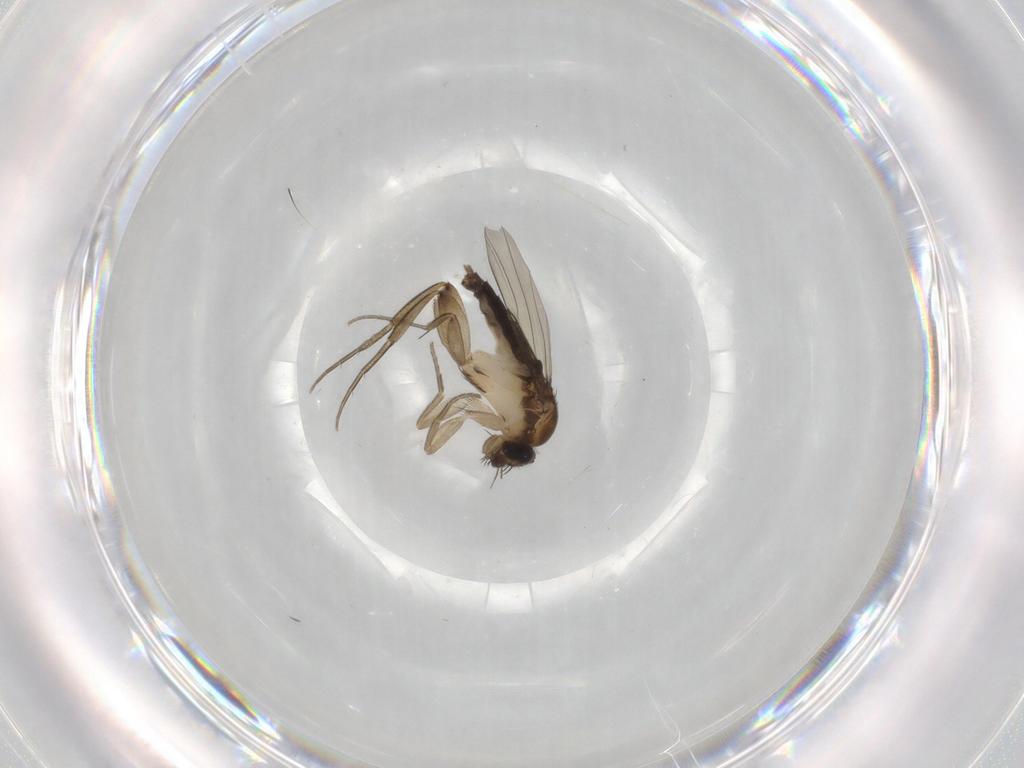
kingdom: Animalia
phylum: Arthropoda
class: Insecta
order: Diptera
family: Phoridae
